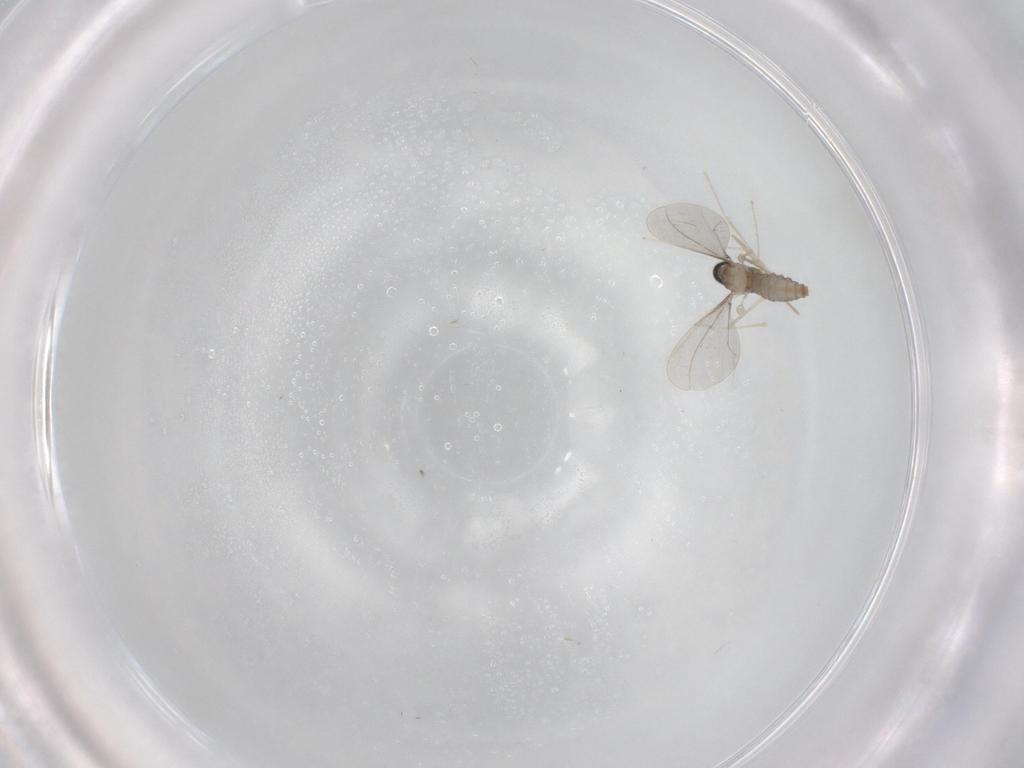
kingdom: Animalia
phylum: Arthropoda
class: Insecta
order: Diptera
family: Cecidomyiidae
